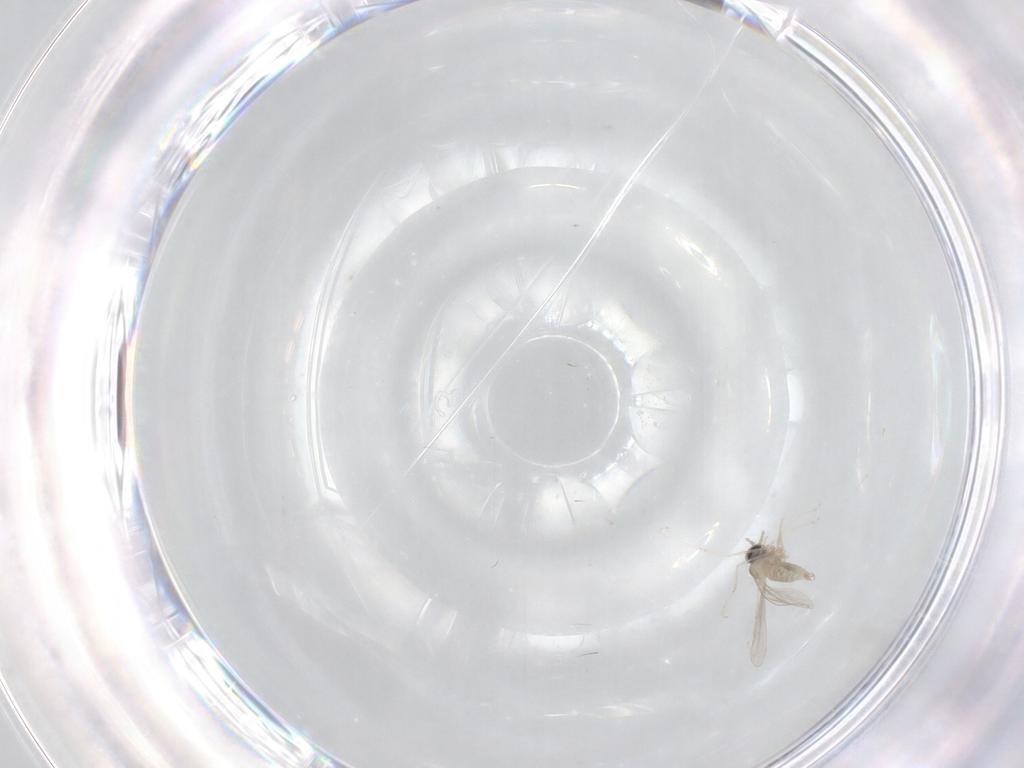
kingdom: Animalia
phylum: Arthropoda
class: Insecta
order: Diptera
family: Cecidomyiidae
